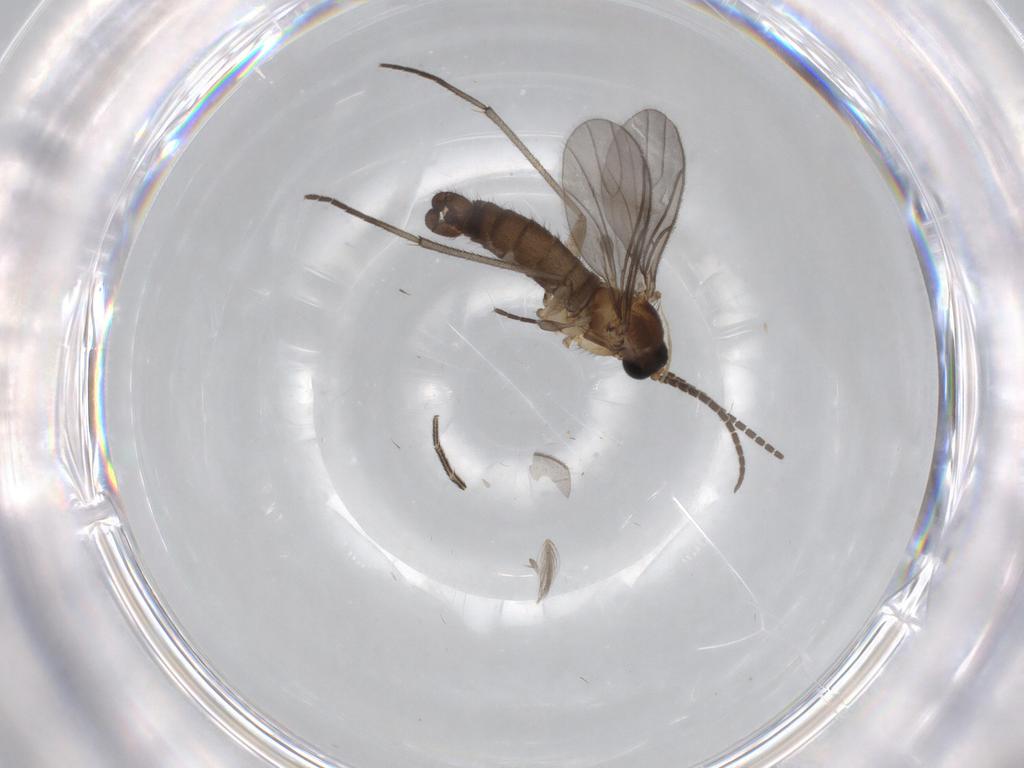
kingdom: Animalia
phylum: Arthropoda
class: Insecta
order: Diptera
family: Sciaridae
